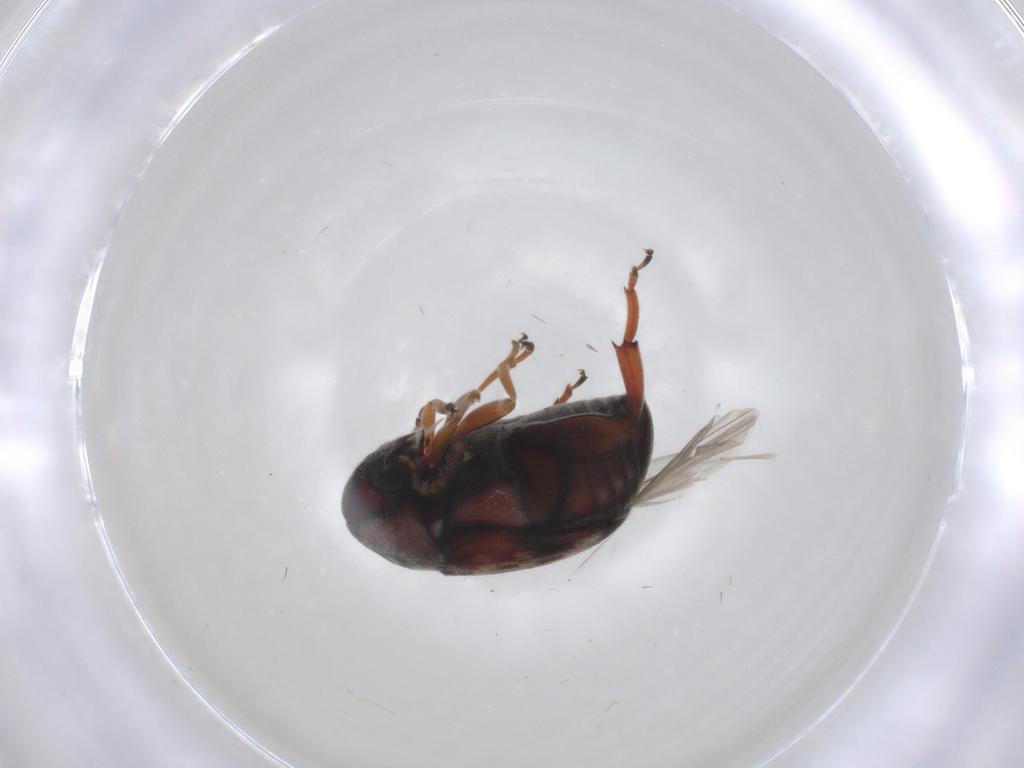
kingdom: Animalia
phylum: Arthropoda
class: Insecta
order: Coleoptera
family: Chrysomelidae
